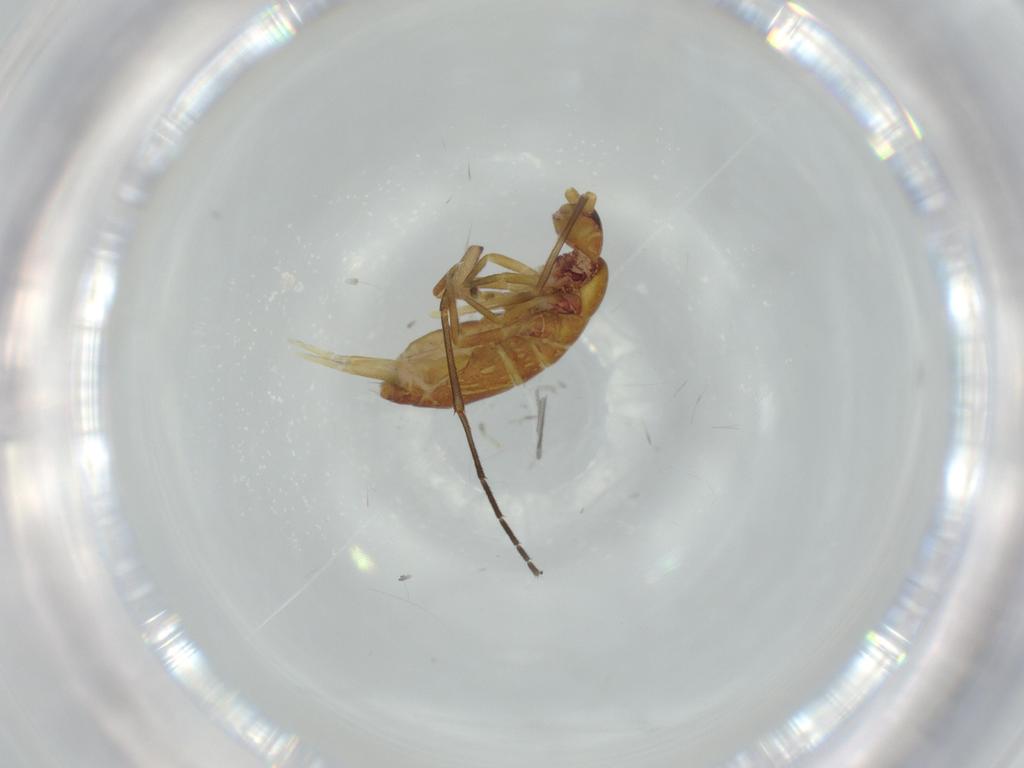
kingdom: Animalia
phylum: Arthropoda
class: Collembola
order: Entomobryomorpha
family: Tomoceridae
